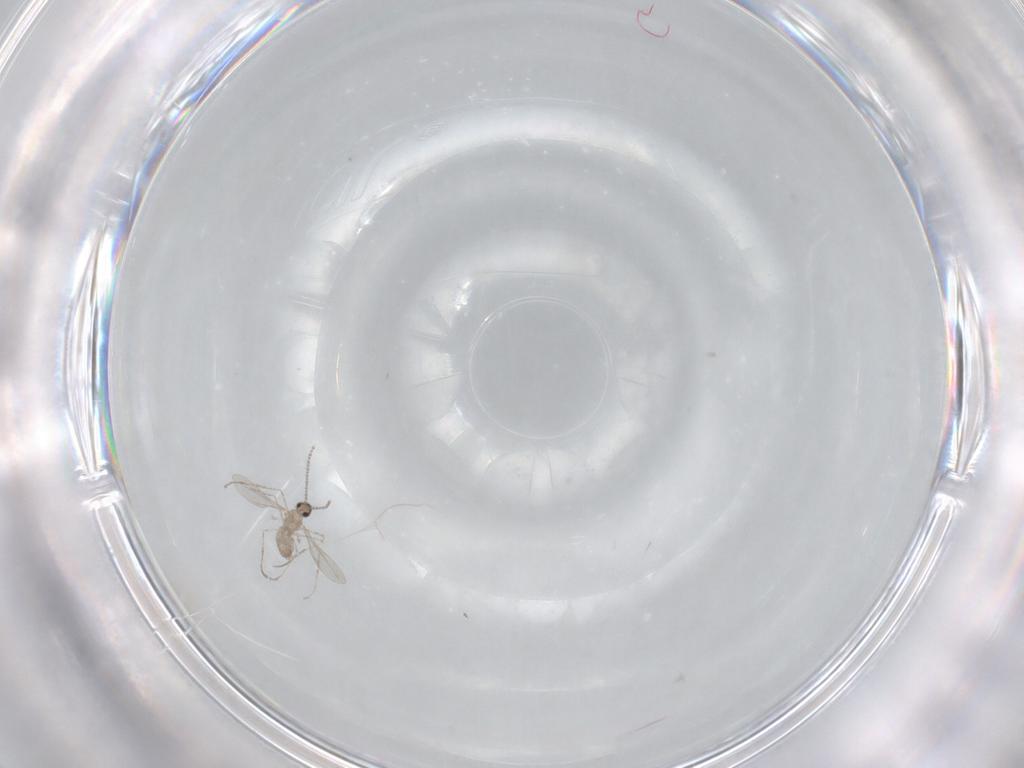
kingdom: Animalia
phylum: Arthropoda
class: Insecta
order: Diptera
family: Cecidomyiidae
